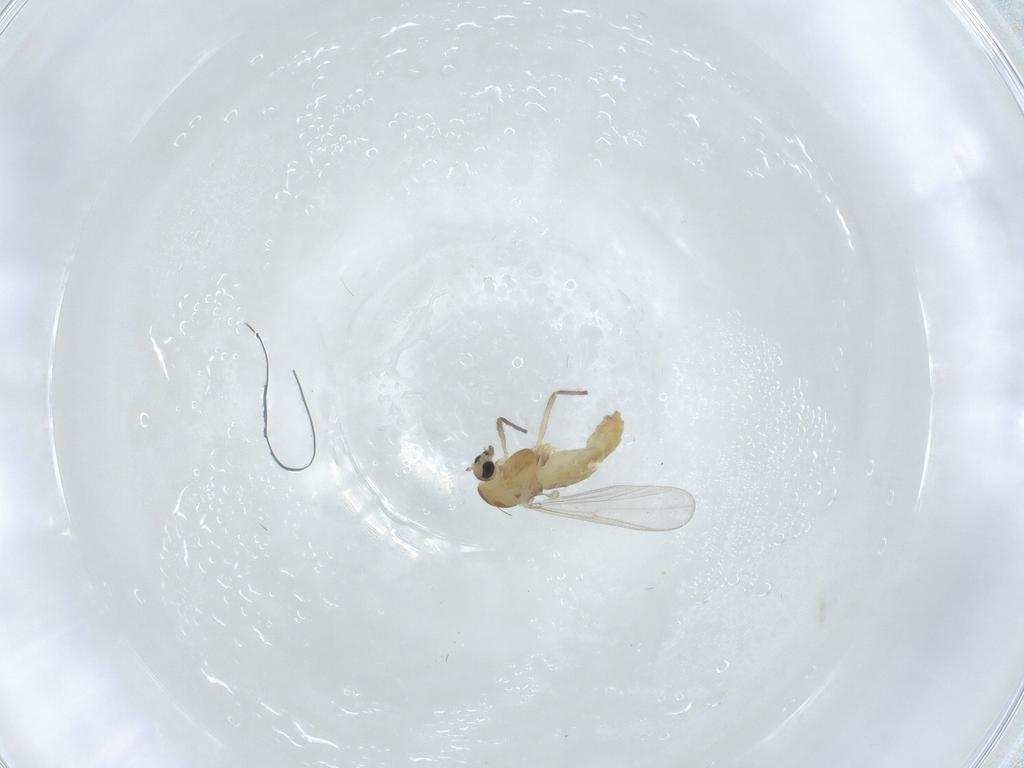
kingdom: Animalia
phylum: Arthropoda
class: Insecta
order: Diptera
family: Chironomidae
